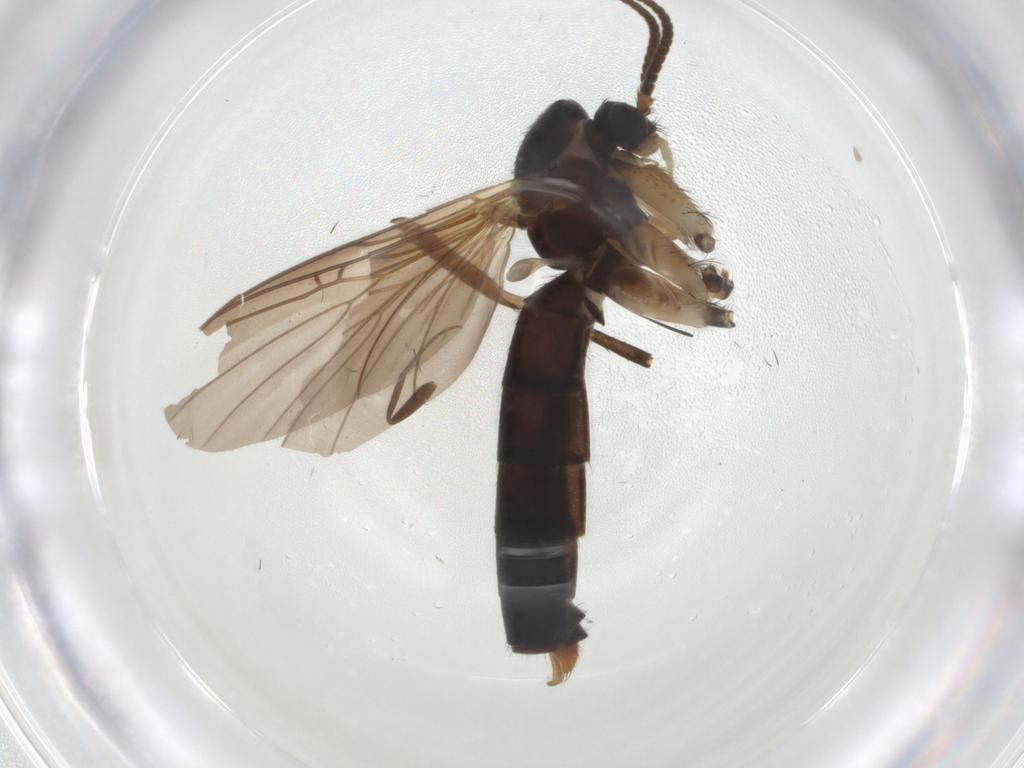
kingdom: Animalia
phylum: Arthropoda
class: Insecta
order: Diptera
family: Mycetophilidae
